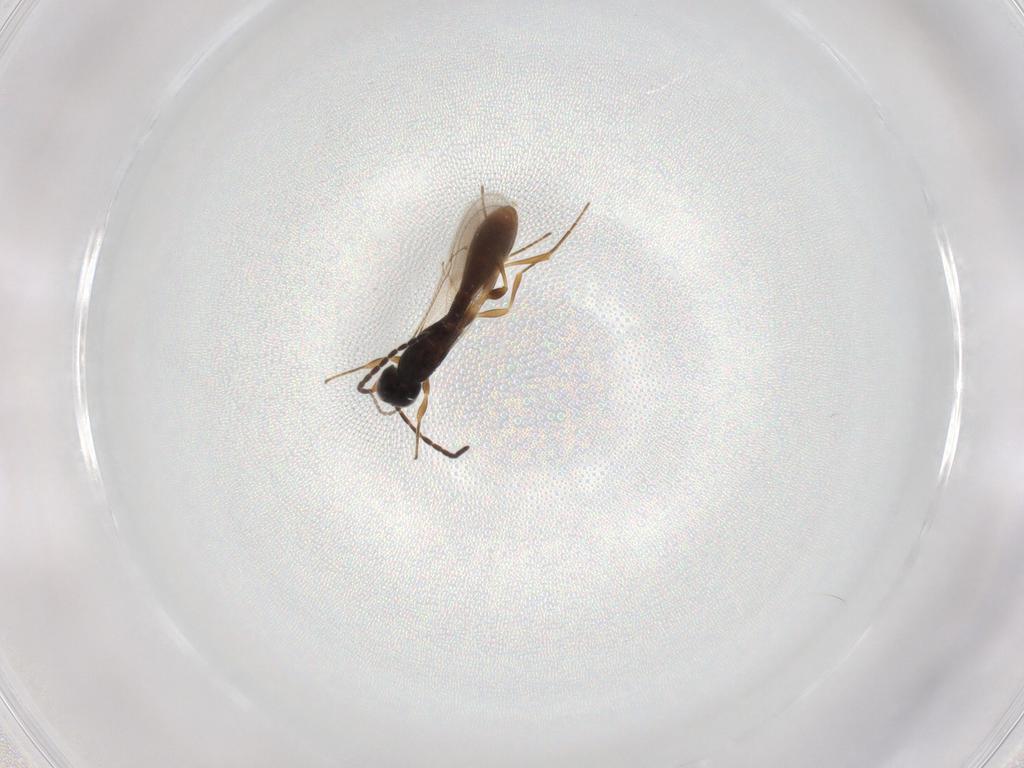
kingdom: Animalia
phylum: Arthropoda
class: Insecta
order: Hymenoptera
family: Scelionidae
